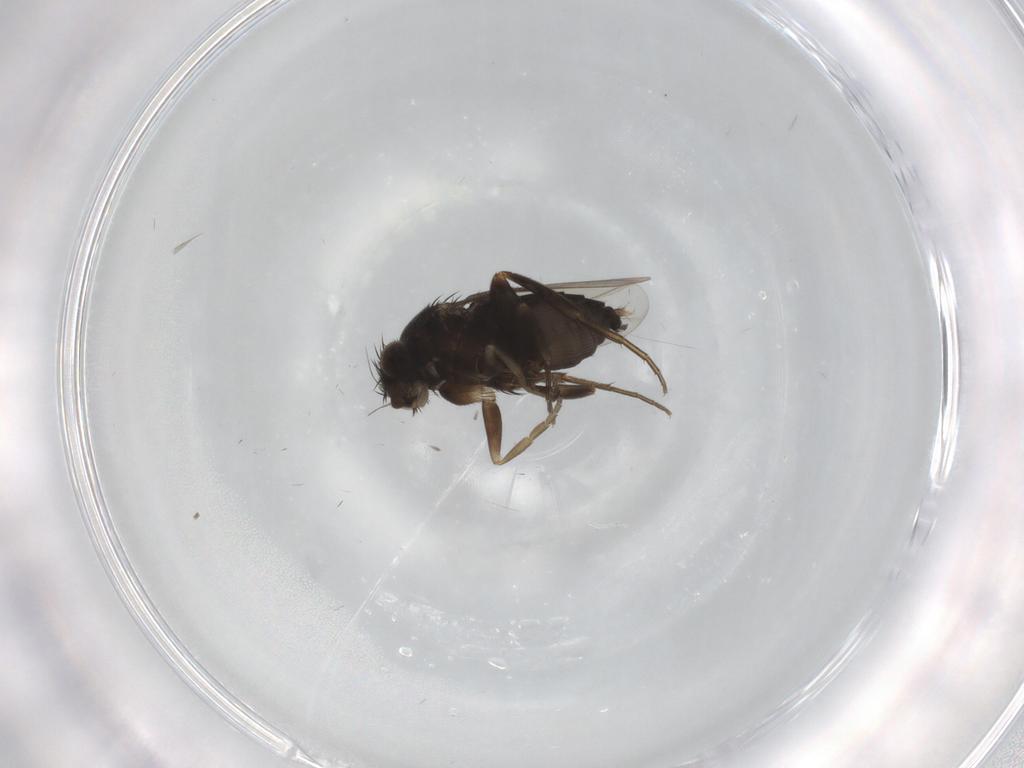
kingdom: Animalia
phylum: Arthropoda
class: Insecta
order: Diptera
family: Phoridae
